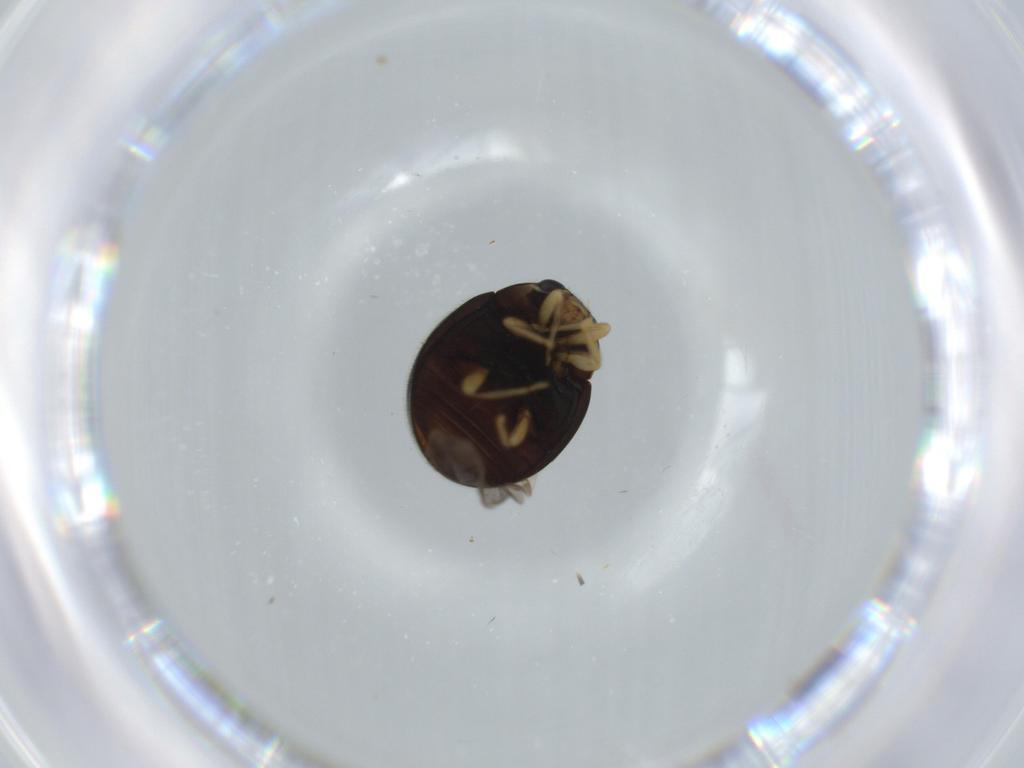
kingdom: Animalia
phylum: Arthropoda
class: Insecta
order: Coleoptera
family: Coccinellidae
